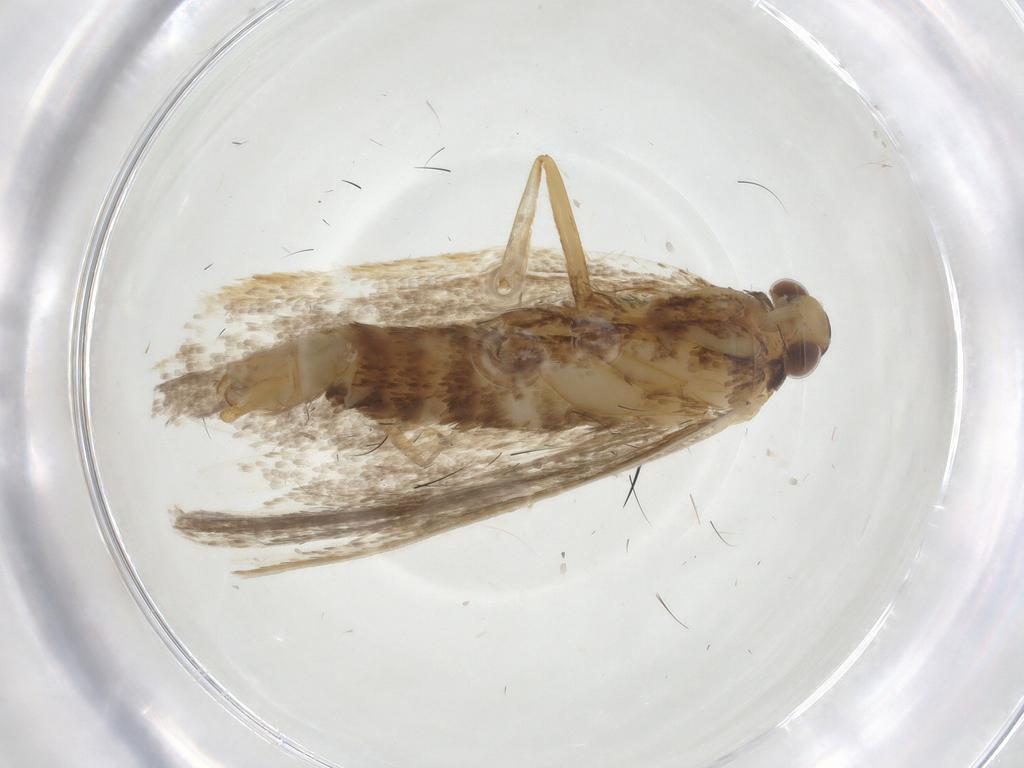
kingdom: Animalia
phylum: Arthropoda
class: Insecta
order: Lepidoptera
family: Lecithoceridae
